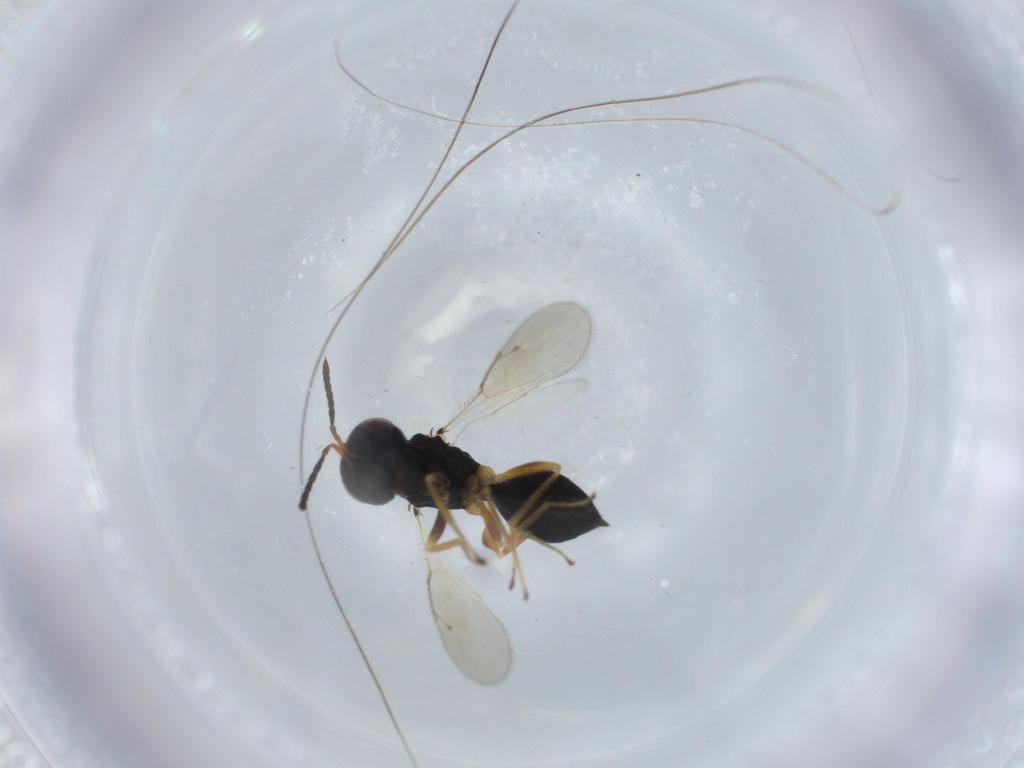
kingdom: Animalia
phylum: Arthropoda
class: Insecta
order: Hymenoptera
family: Pteromalidae
